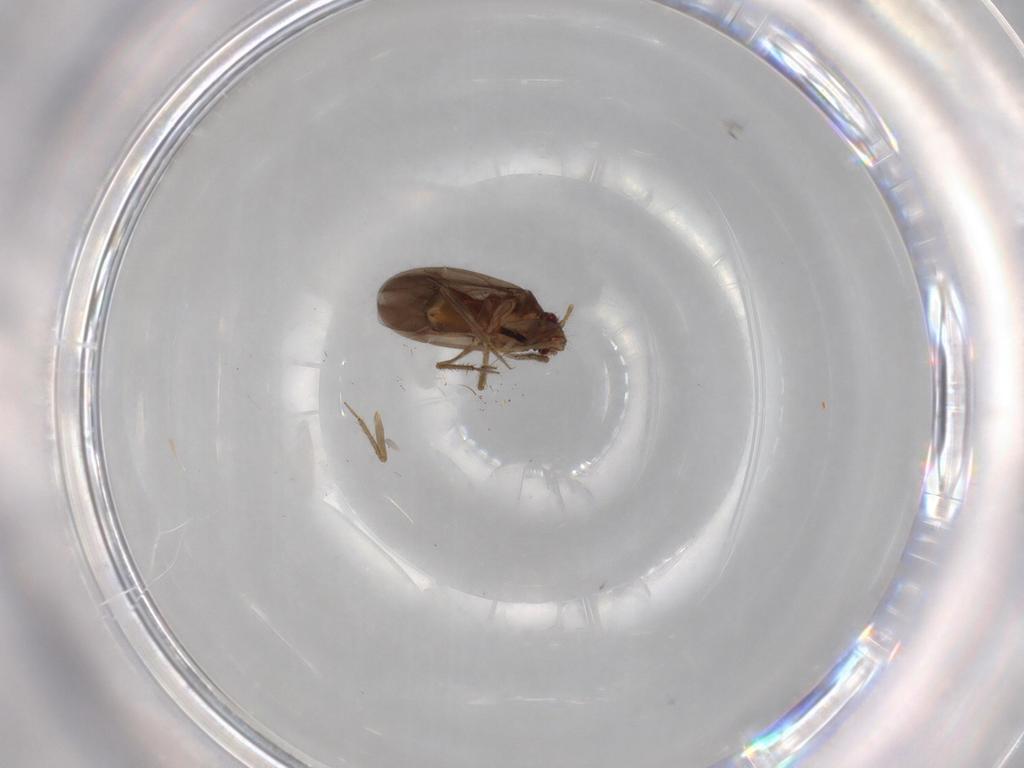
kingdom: Animalia
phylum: Arthropoda
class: Insecta
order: Hemiptera
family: Ceratocombidae
